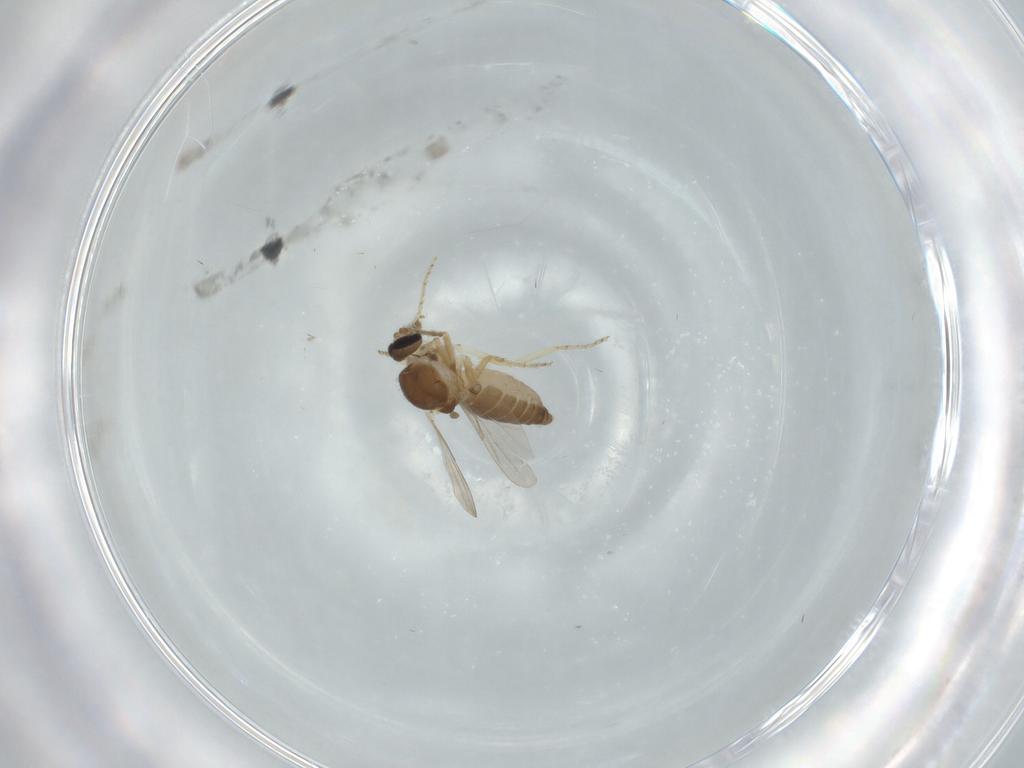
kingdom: Animalia
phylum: Arthropoda
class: Insecta
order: Diptera
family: Ceratopogonidae
